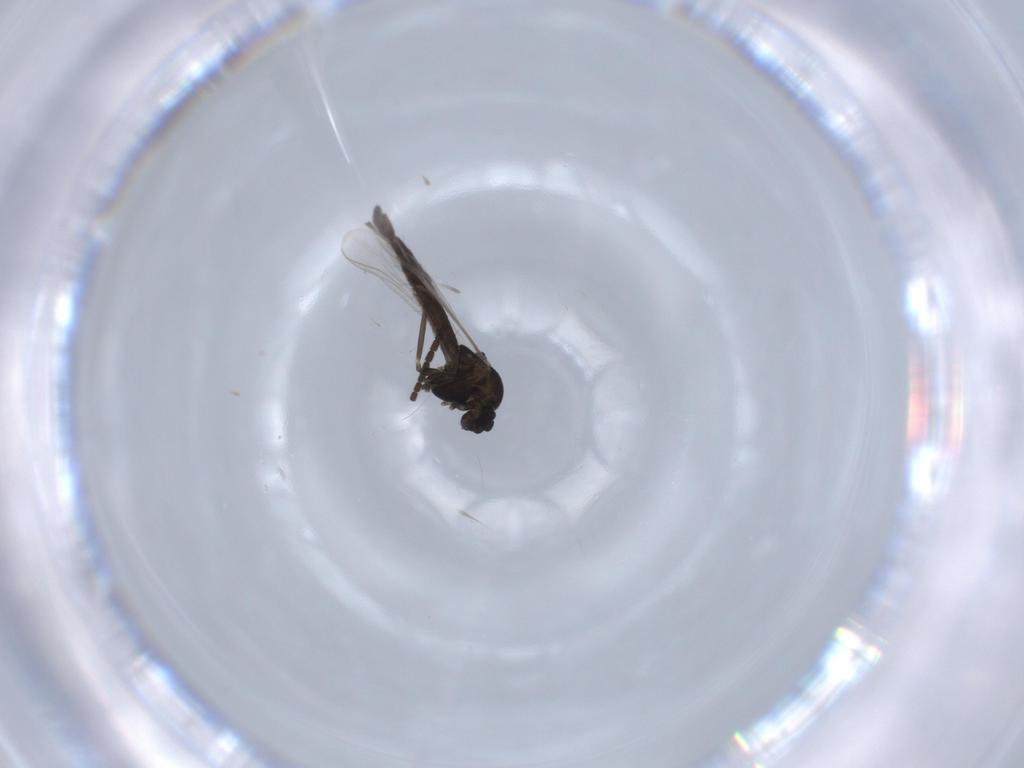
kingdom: Animalia
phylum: Arthropoda
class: Insecta
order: Diptera
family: Chironomidae
